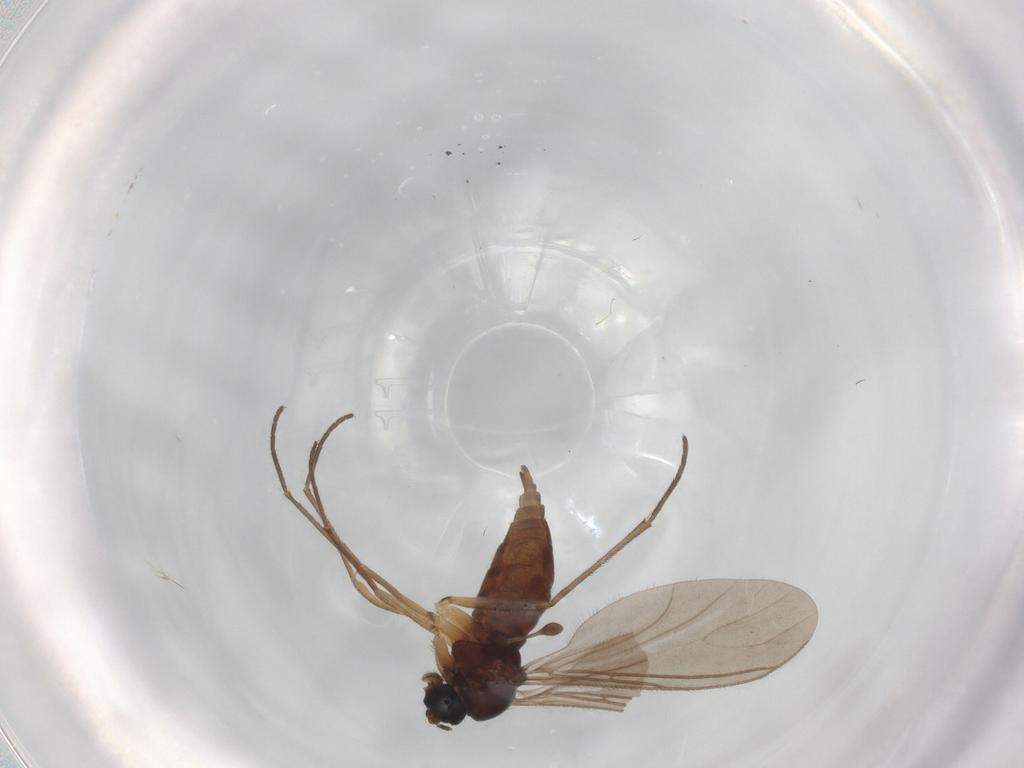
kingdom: Animalia
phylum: Arthropoda
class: Insecta
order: Diptera
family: Sciaridae
